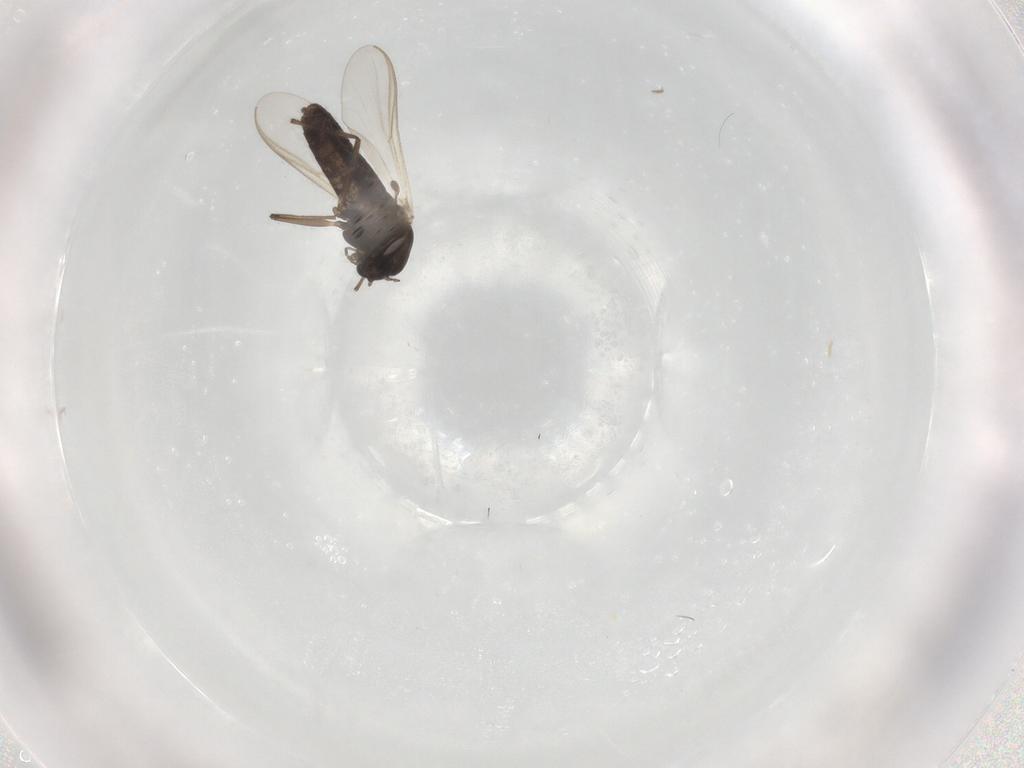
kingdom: Animalia
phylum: Arthropoda
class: Insecta
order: Diptera
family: Chironomidae
